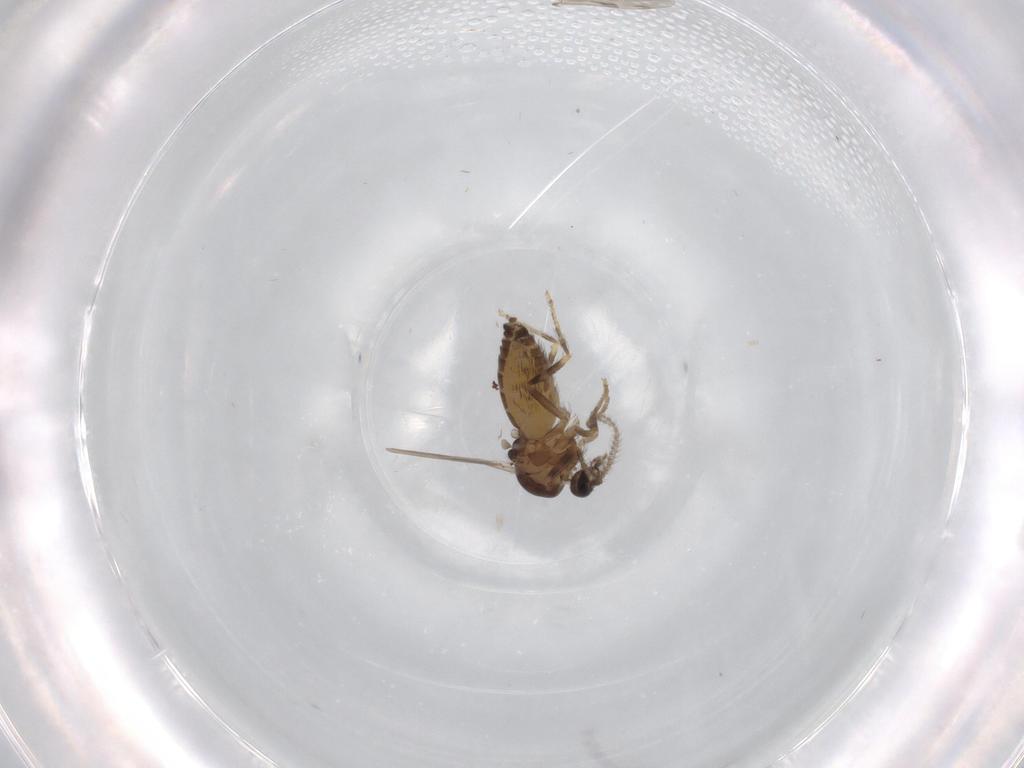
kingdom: Animalia
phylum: Arthropoda
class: Insecta
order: Diptera
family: Ceratopogonidae
